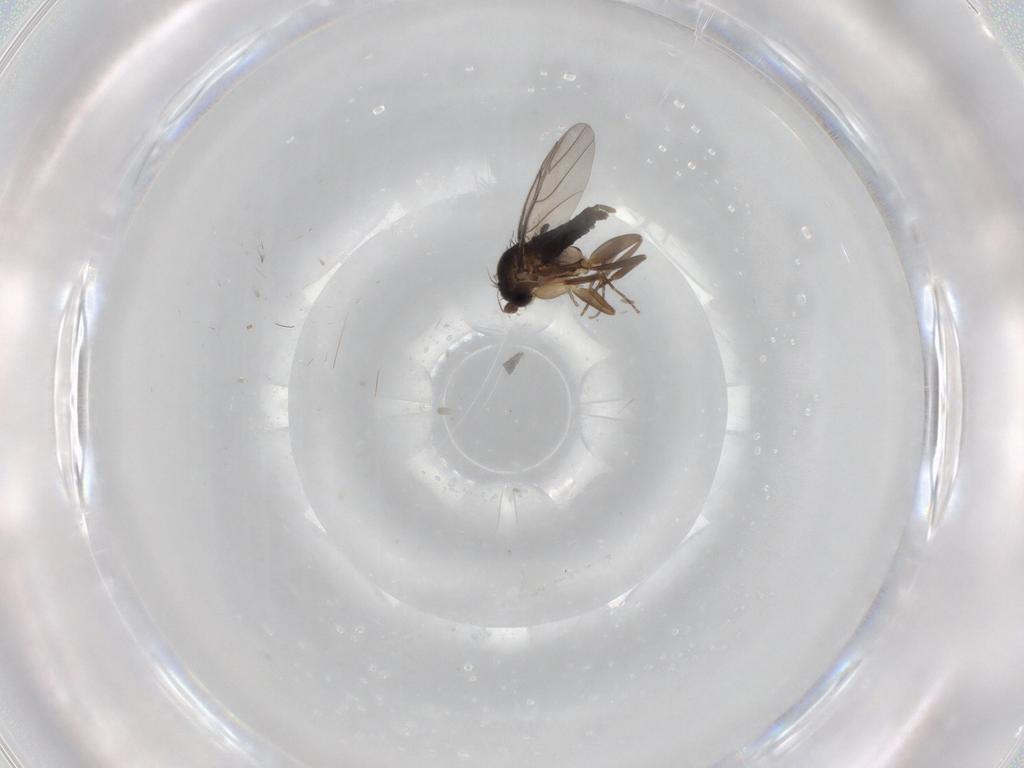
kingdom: Animalia
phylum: Arthropoda
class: Insecta
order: Diptera
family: Phoridae
